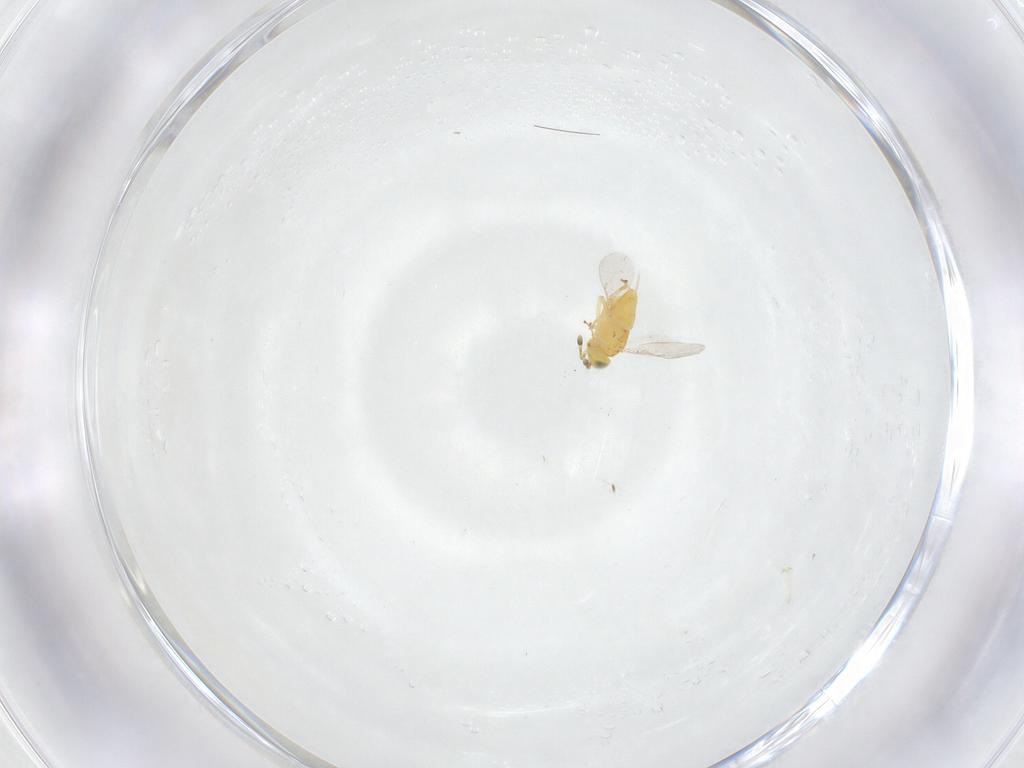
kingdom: Animalia
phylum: Arthropoda
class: Insecta
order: Hymenoptera
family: Encyrtidae
